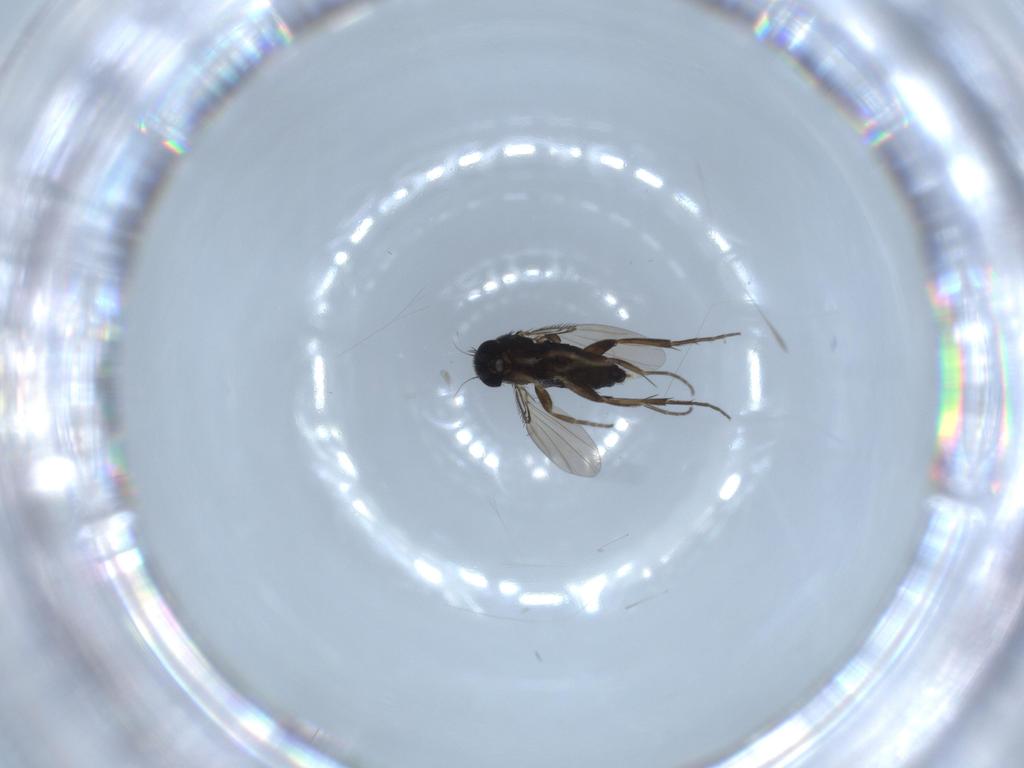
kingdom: Animalia
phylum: Arthropoda
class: Insecta
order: Diptera
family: Phoridae
